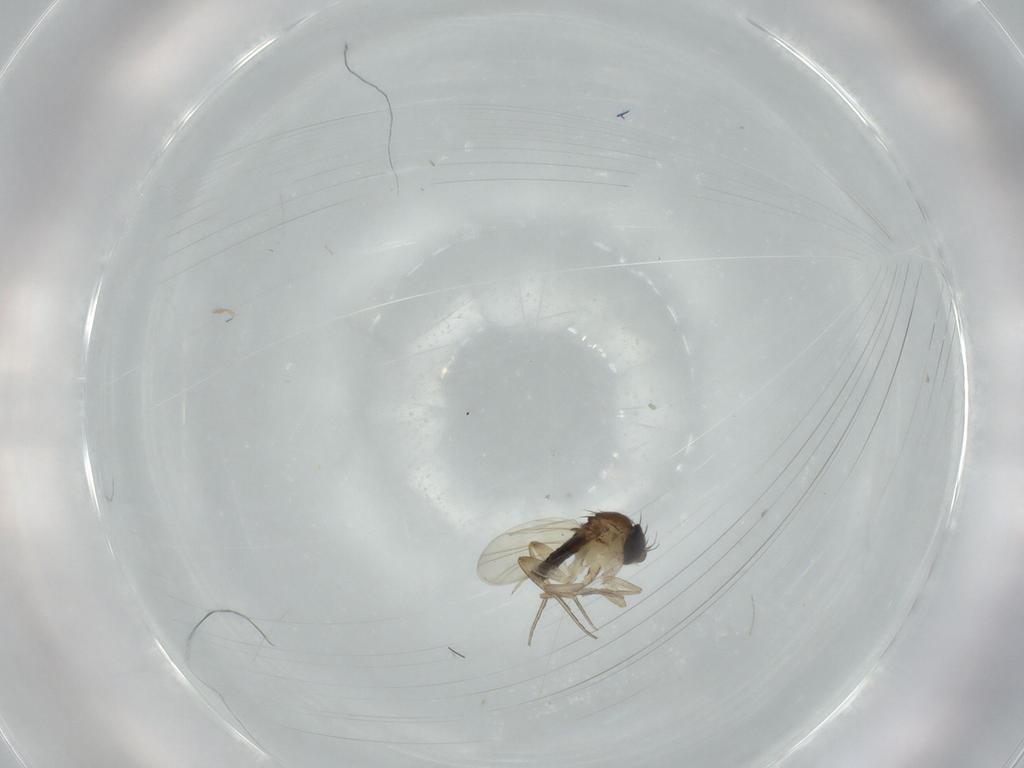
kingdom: Animalia
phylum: Arthropoda
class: Insecta
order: Diptera
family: Phoridae
